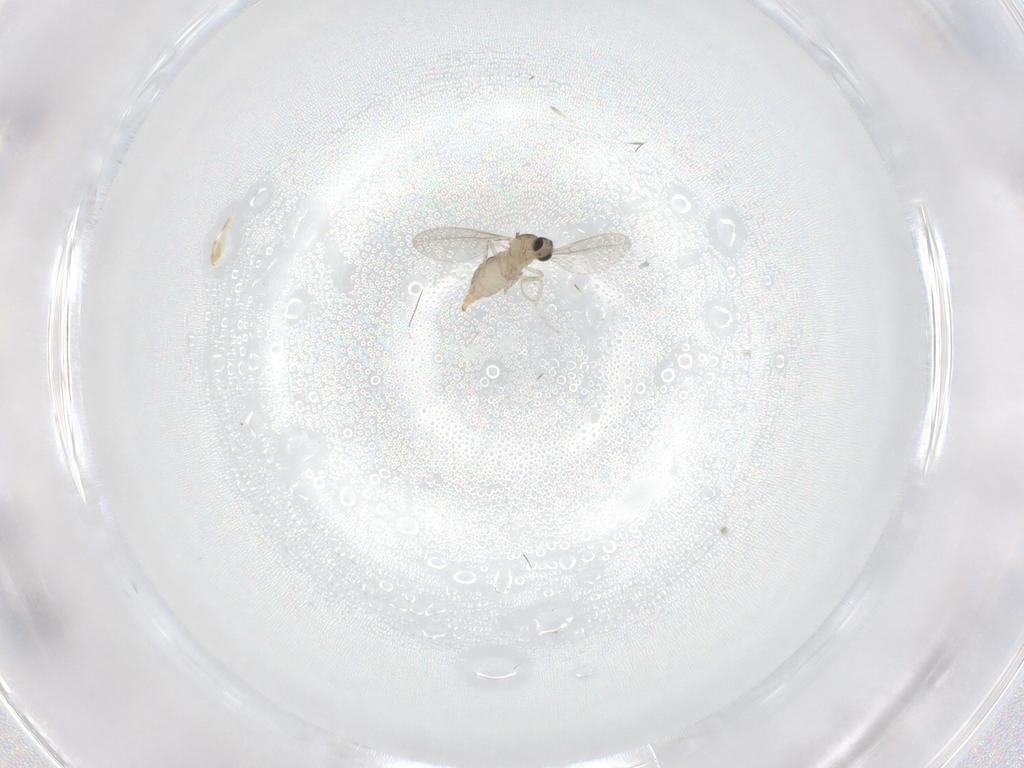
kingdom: Animalia
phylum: Arthropoda
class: Insecta
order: Diptera
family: Cecidomyiidae
